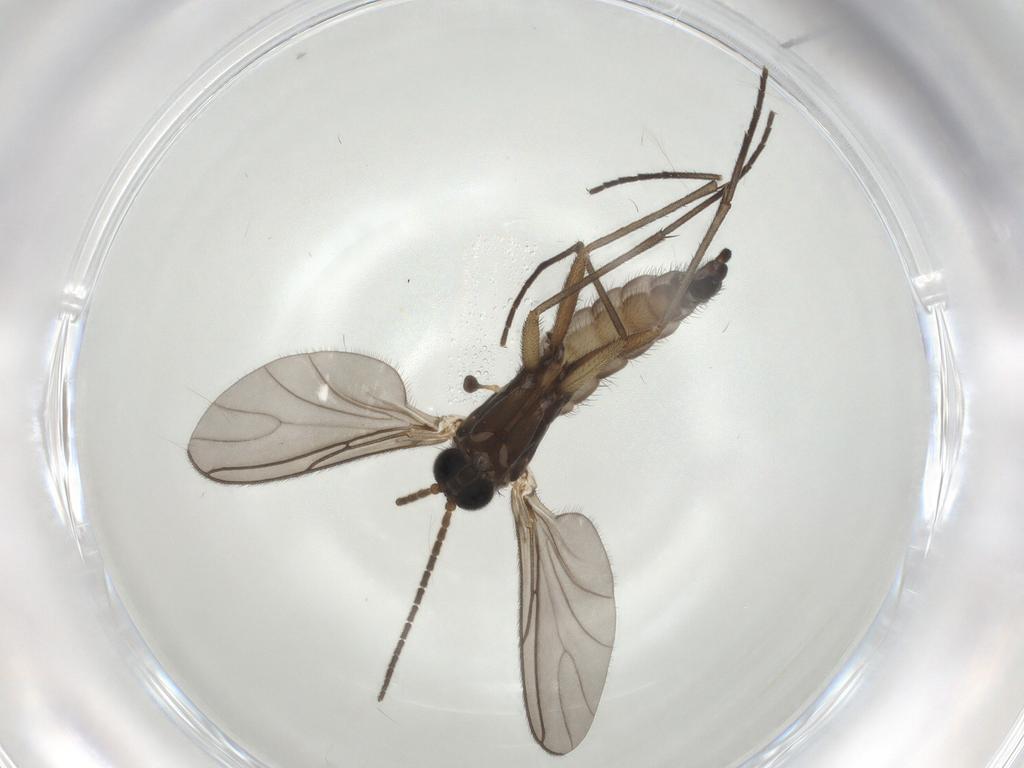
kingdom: Animalia
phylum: Arthropoda
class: Insecta
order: Diptera
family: Sciaridae
